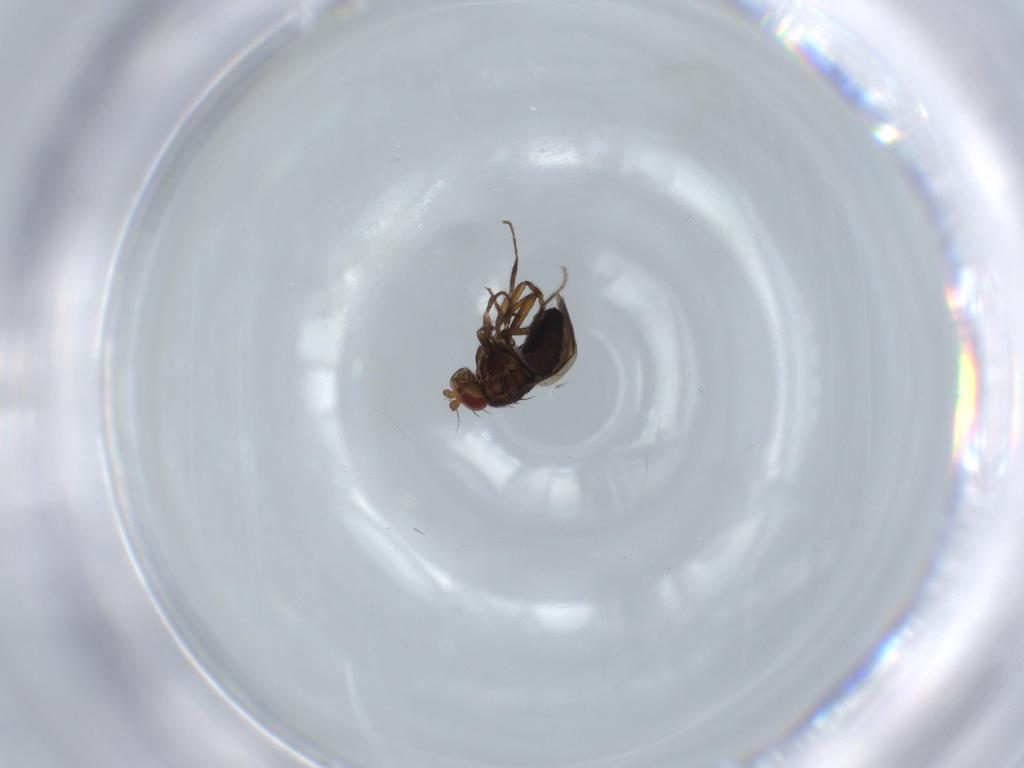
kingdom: Animalia
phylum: Arthropoda
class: Insecta
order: Diptera
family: Sphaeroceridae
